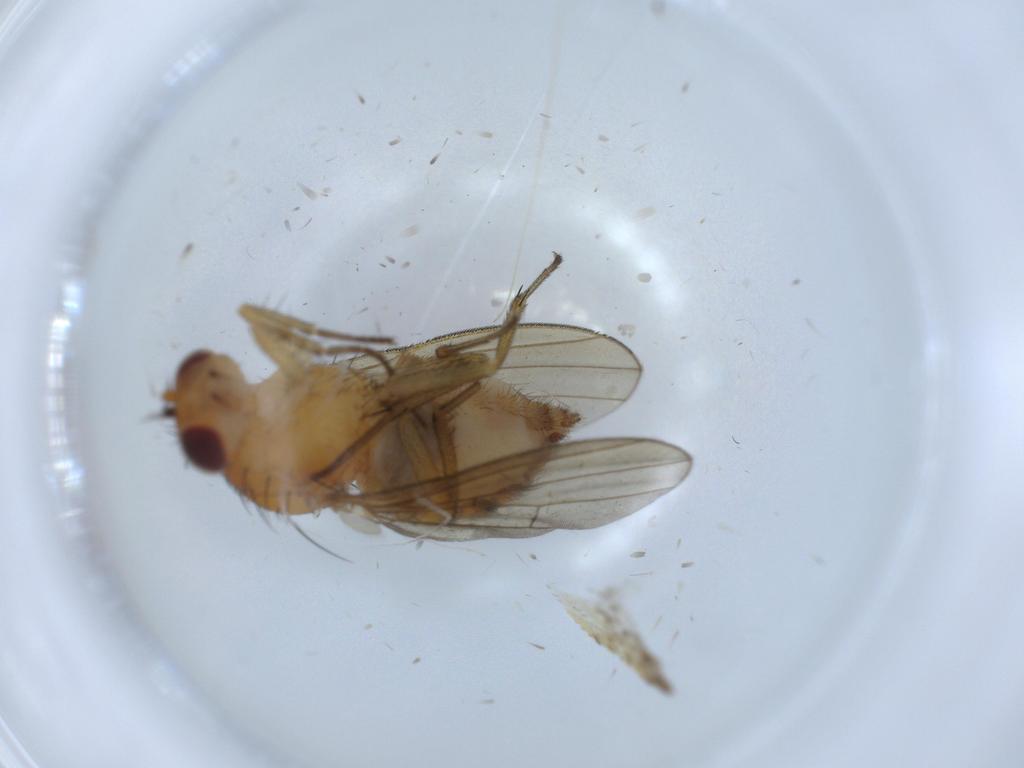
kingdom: Animalia
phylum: Arthropoda
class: Insecta
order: Diptera
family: Lauxaniidae
